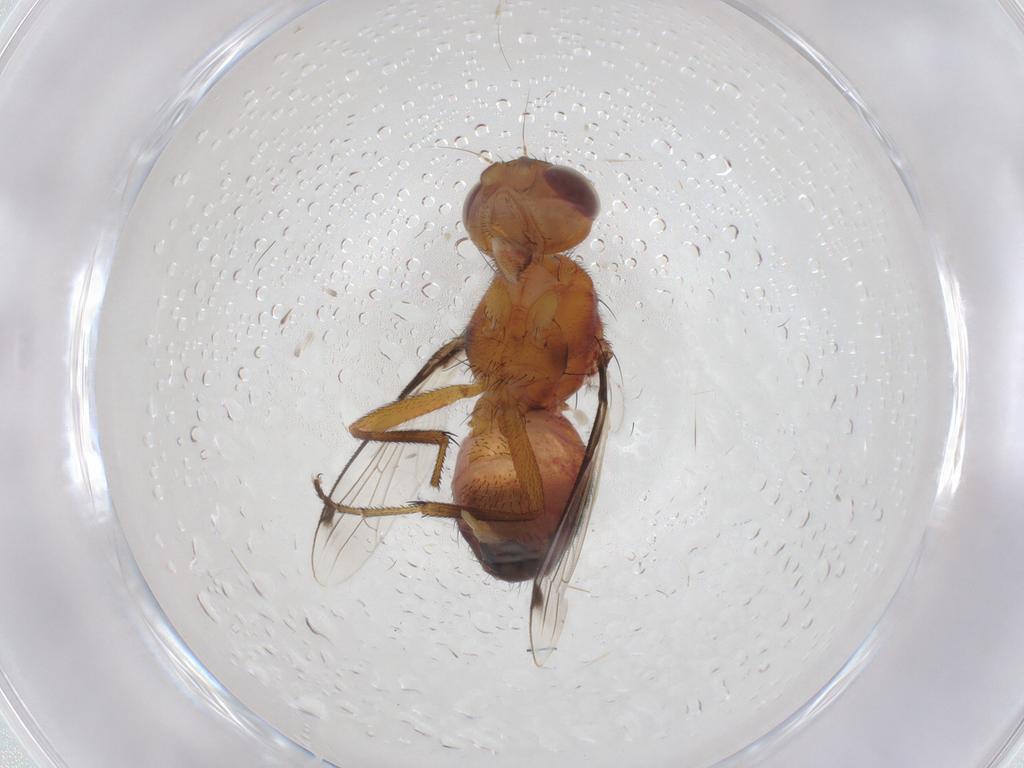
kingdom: Animalia
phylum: Arthropoda
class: Insecta
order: Diptera
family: Richardiidae
